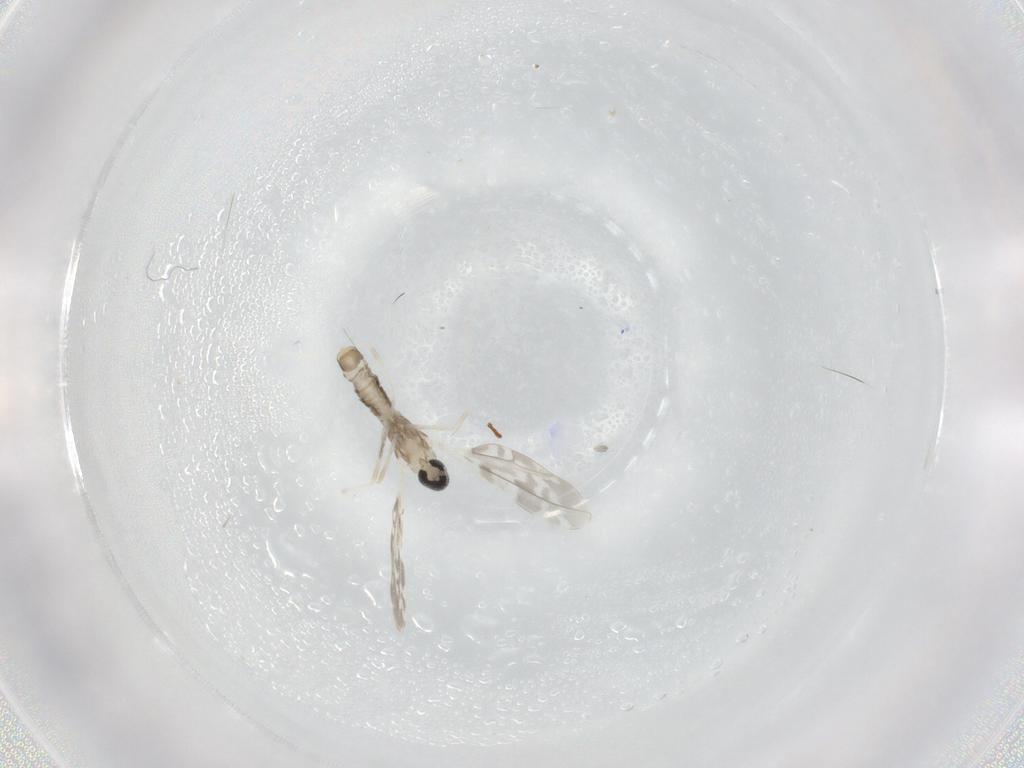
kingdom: Animalia
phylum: Arthropoda
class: Insecta
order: Diptera
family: Cecidomyiidae
